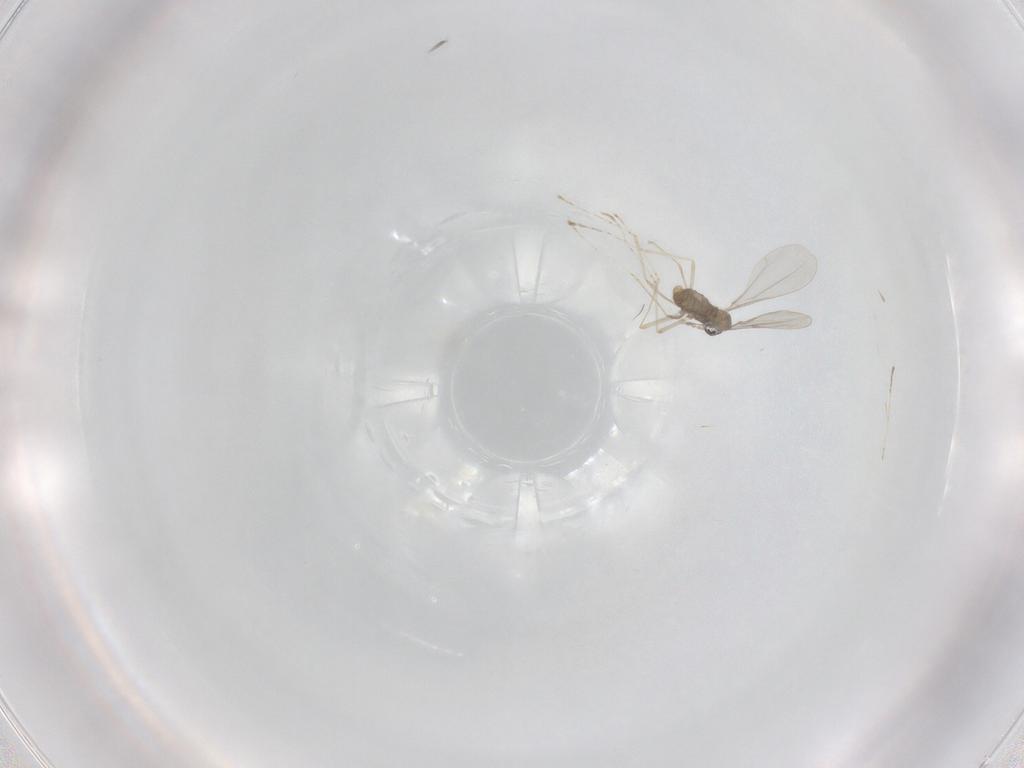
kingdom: Animalia
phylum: Arthropoda
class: Insecta
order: Diptera
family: Cecidomyiidae
